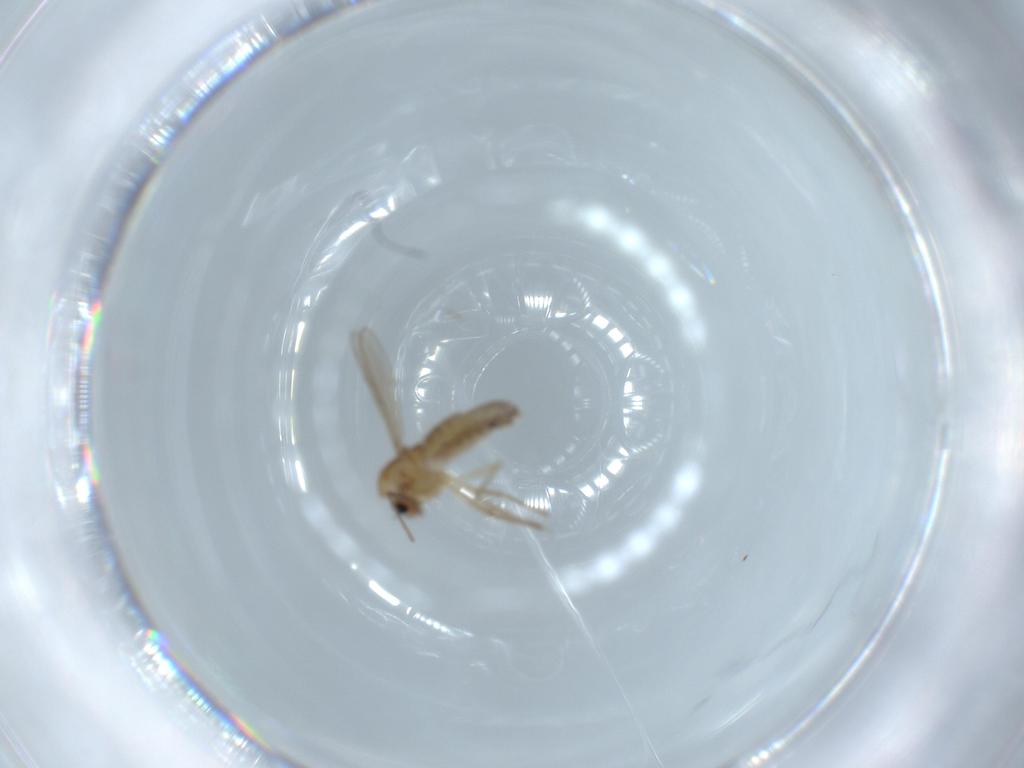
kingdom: Animalia
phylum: Arthropoda
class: Insecta
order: Diptera
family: Chironomidae
